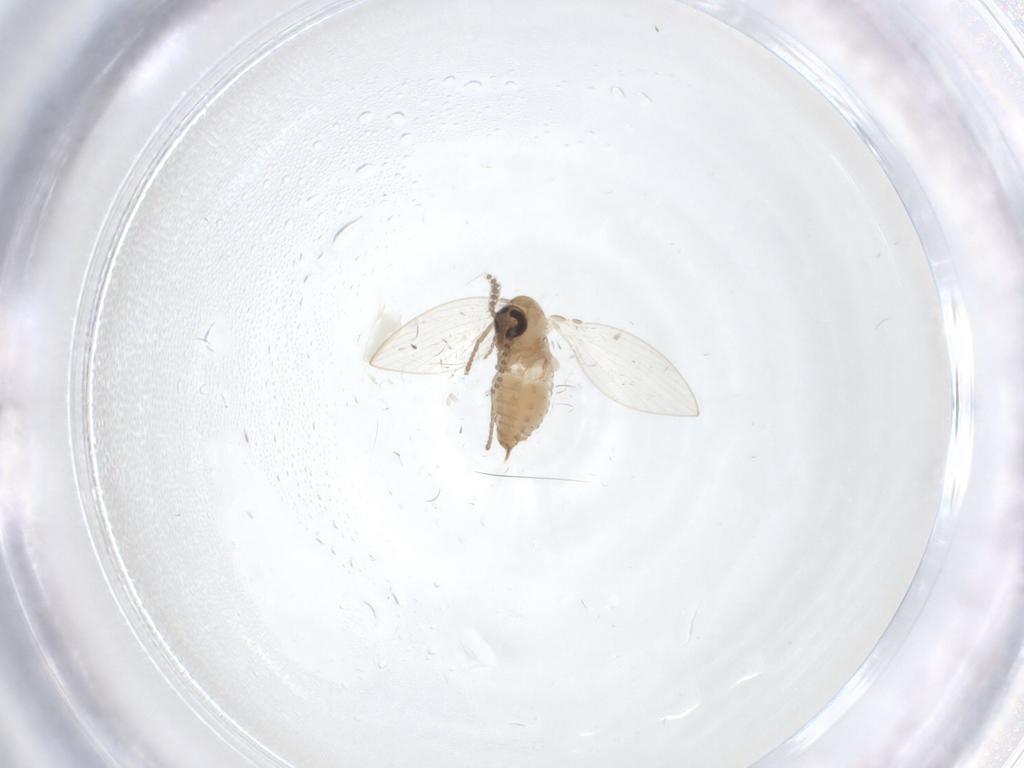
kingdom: Animalia
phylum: Arthropoda
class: Insecta
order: Diptera
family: Psychodidae
